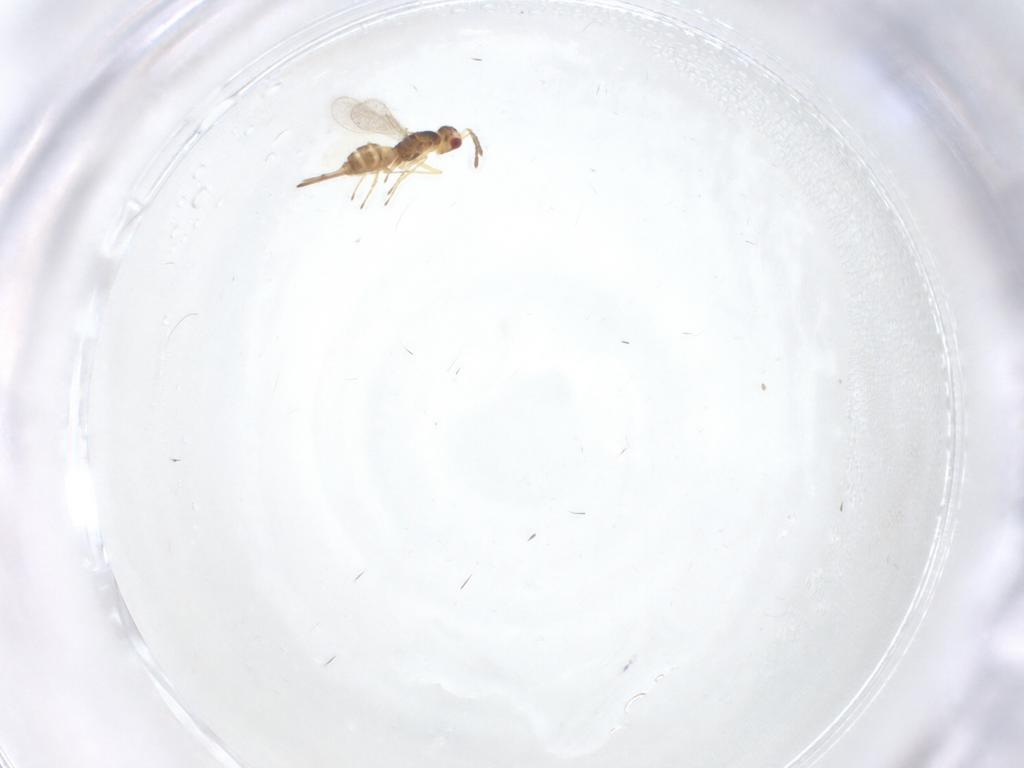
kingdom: Animalia
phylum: Arthropoda
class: Insecta
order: Hymenoptera
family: Eulophidae
